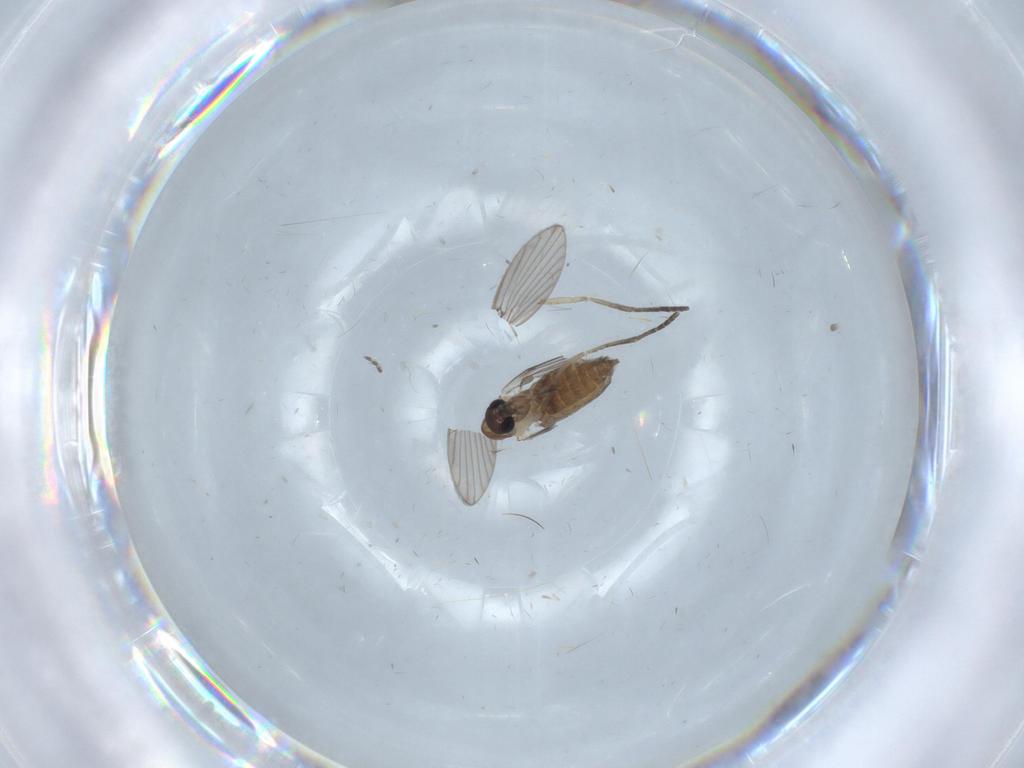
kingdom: Animalia
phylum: Arthropoda
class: Insecta
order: Diptera
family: Psychodidae
